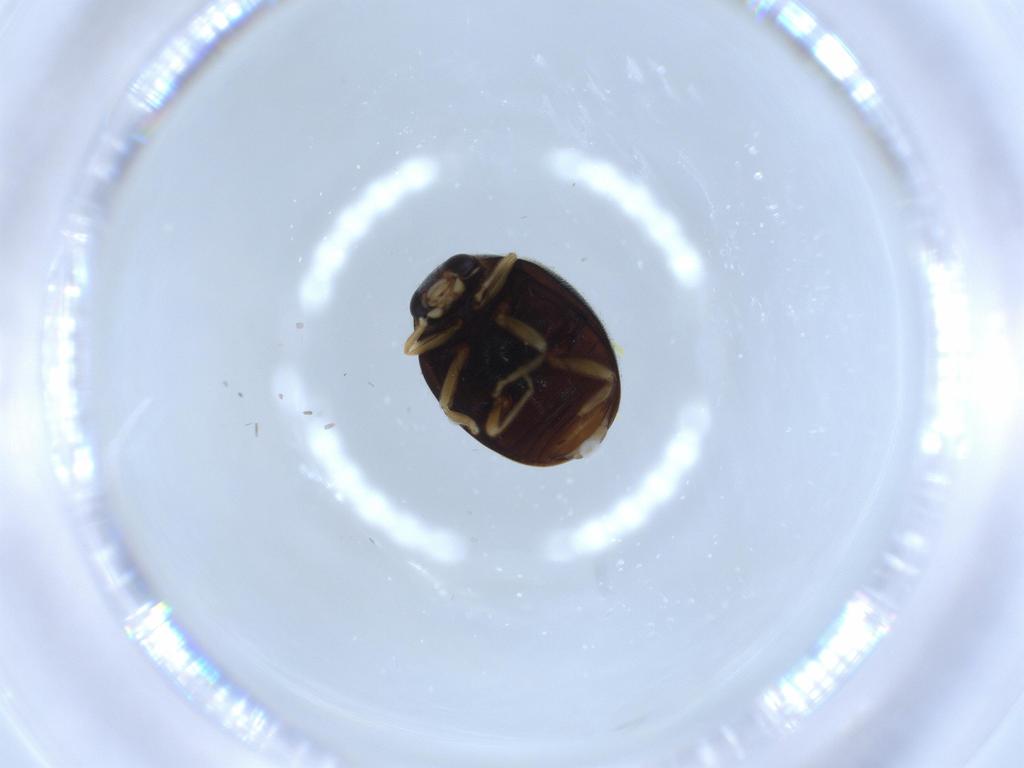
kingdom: Animalia
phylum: Arthropoda
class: Insecta
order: Coleoptera
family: Coccinellidae
